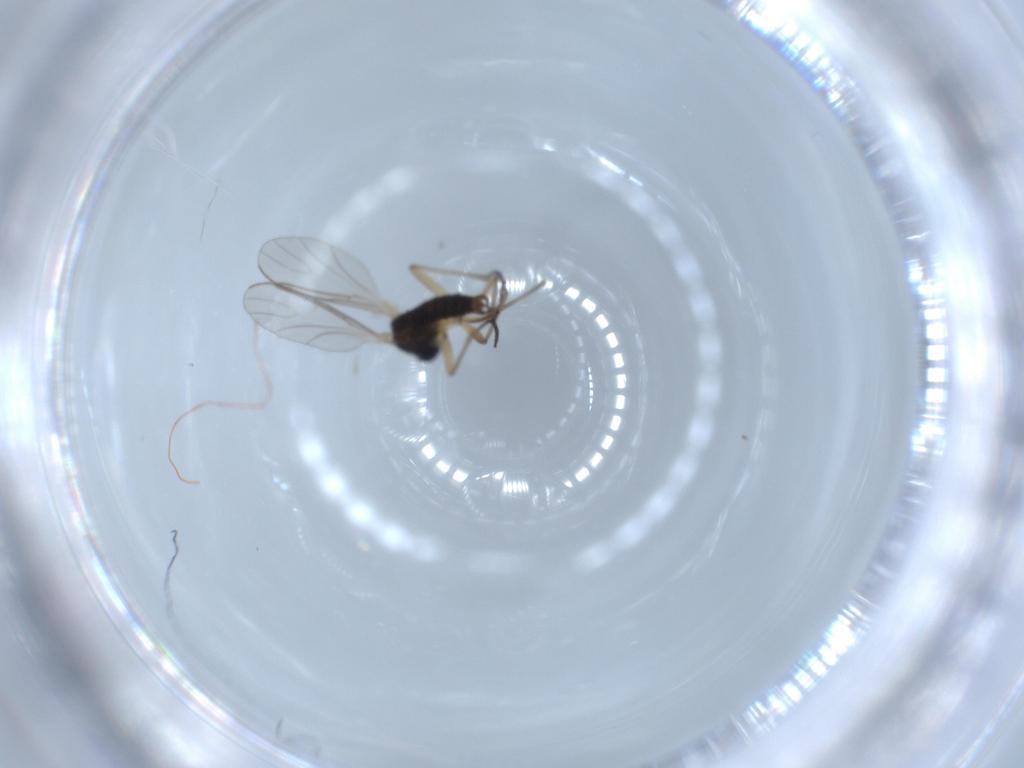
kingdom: Animalia
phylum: Arthropoda
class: Insecta
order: Diptera
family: Sciaridae
